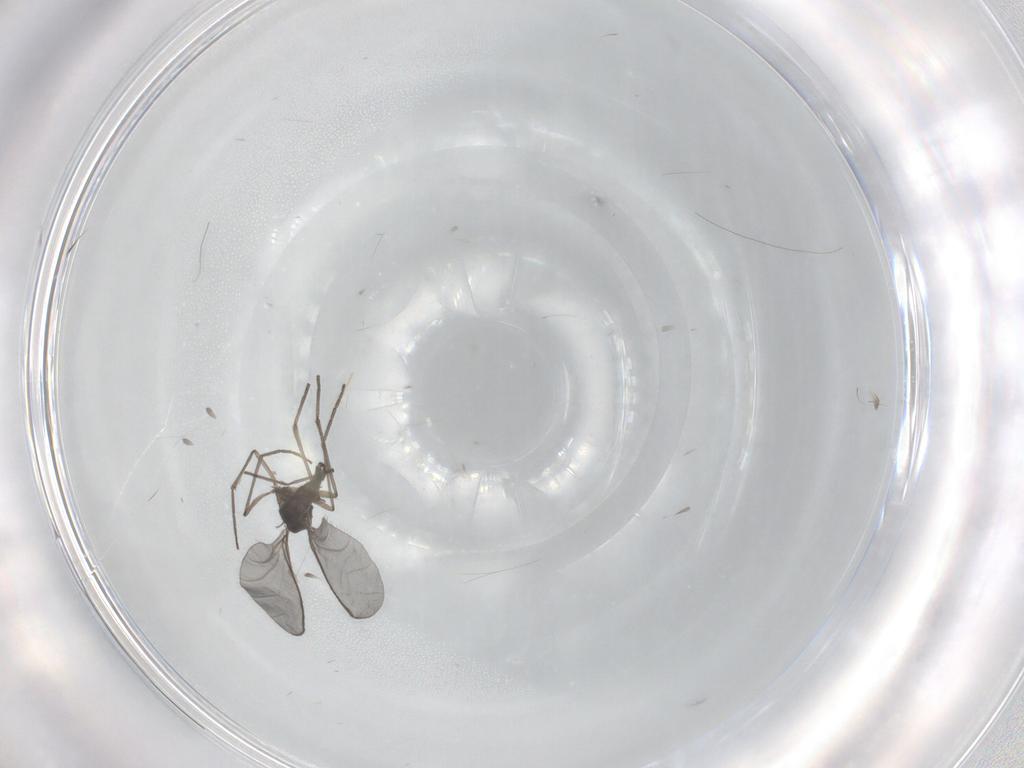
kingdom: Animalia
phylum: Arthropoda
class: Insecta
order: Diptera
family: Sciaridae
